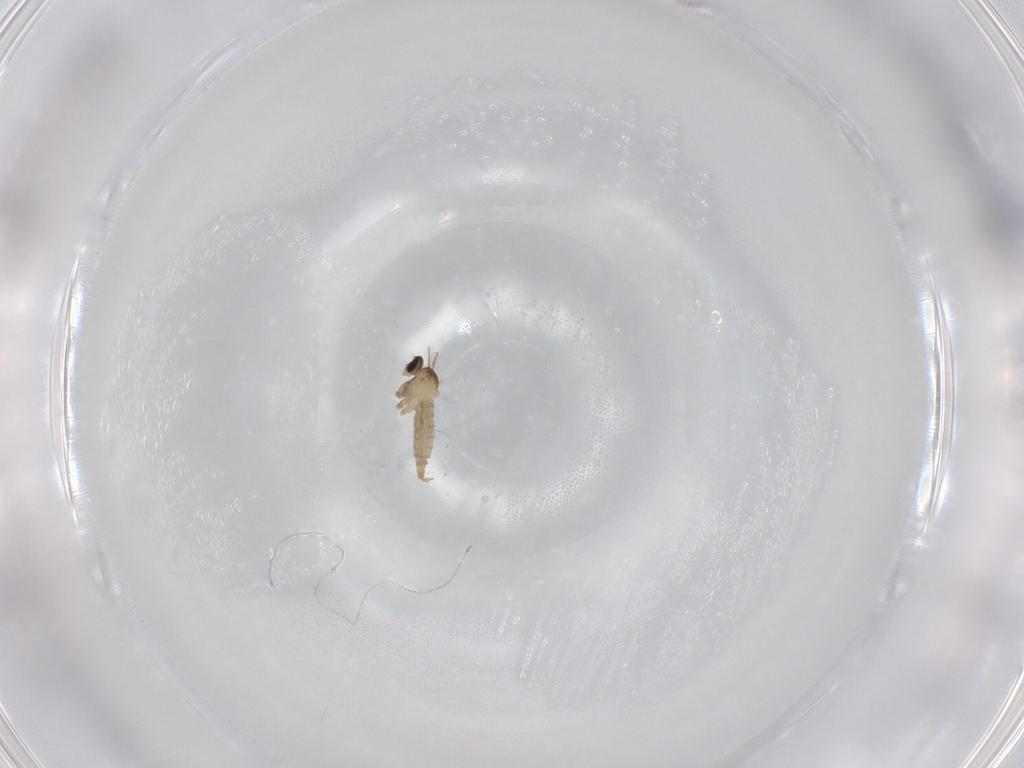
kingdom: Animalia
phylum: Arthropoda
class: Insecta
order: Diptera
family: Cecidomyiidae
